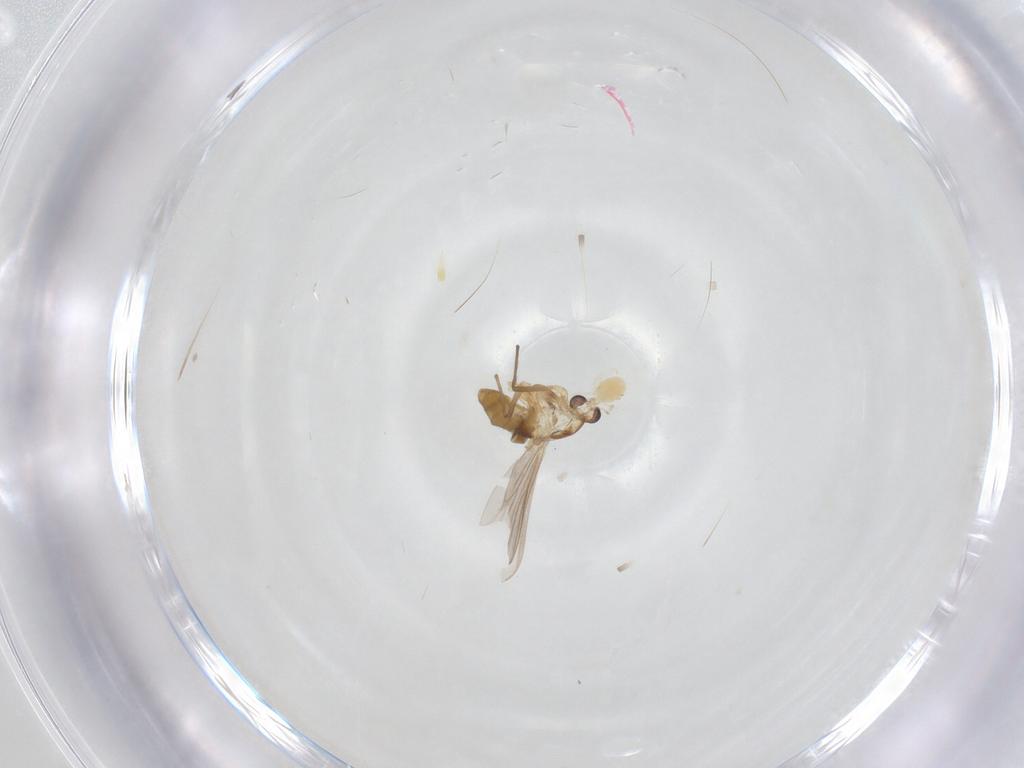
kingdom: Animalia
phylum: Arthropoda
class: Insecta
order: Diptera
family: Chironomidae
